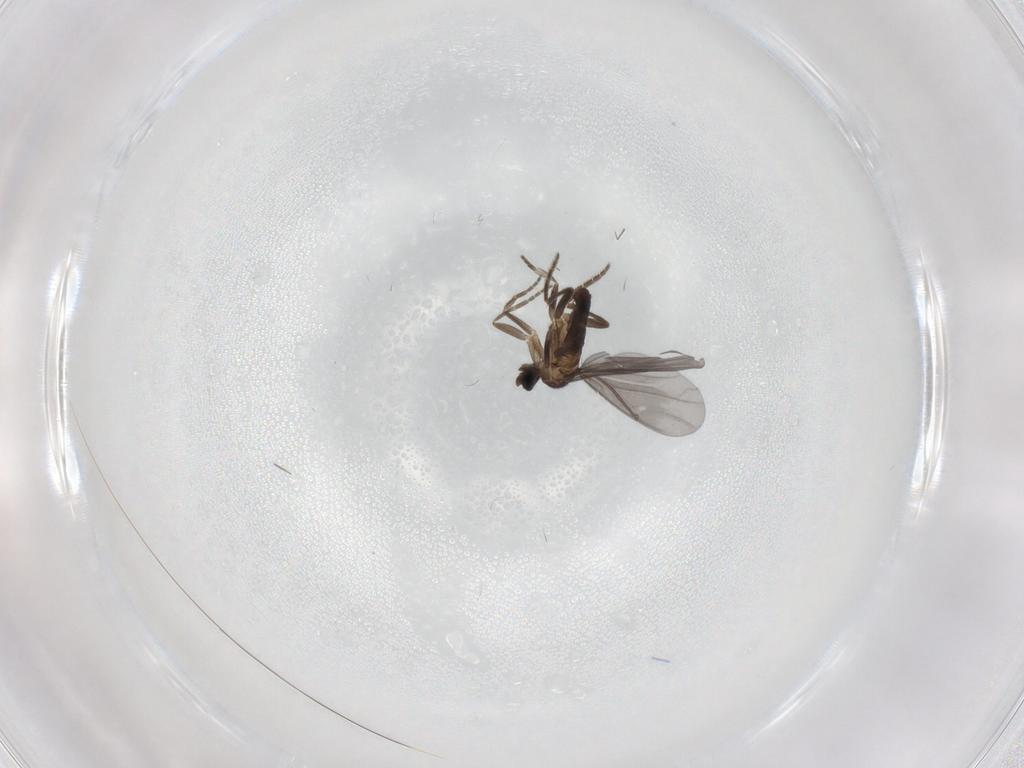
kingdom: Animalia
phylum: Arthropoda
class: Insecta
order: Diptera
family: Phoridae
